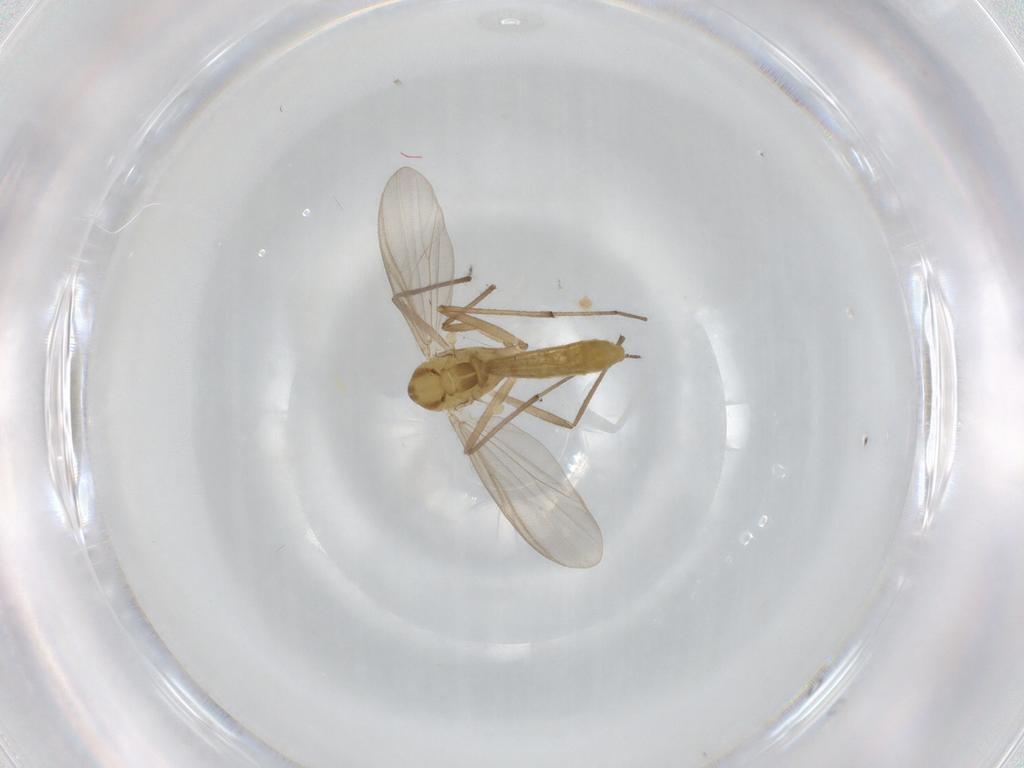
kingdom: Animalia
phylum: Arthropoda
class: Insecta
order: Diptera
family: Chironomidae
